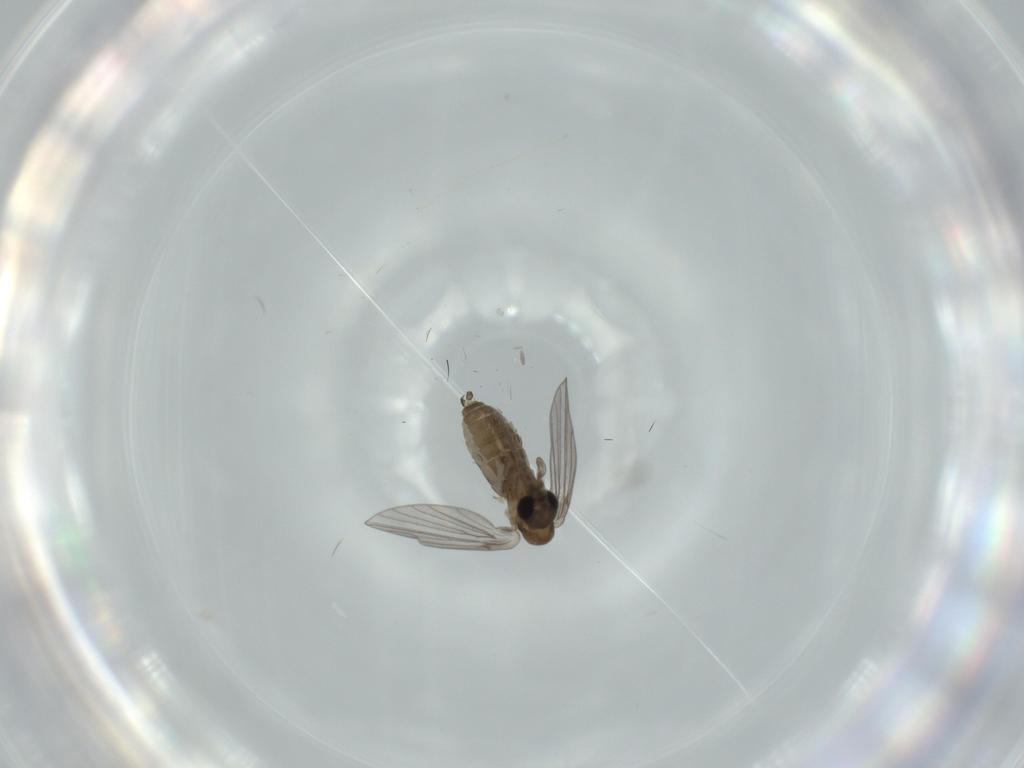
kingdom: Animalia
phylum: Arthropoda
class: Insecta
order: Diptera
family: Psychodidae
